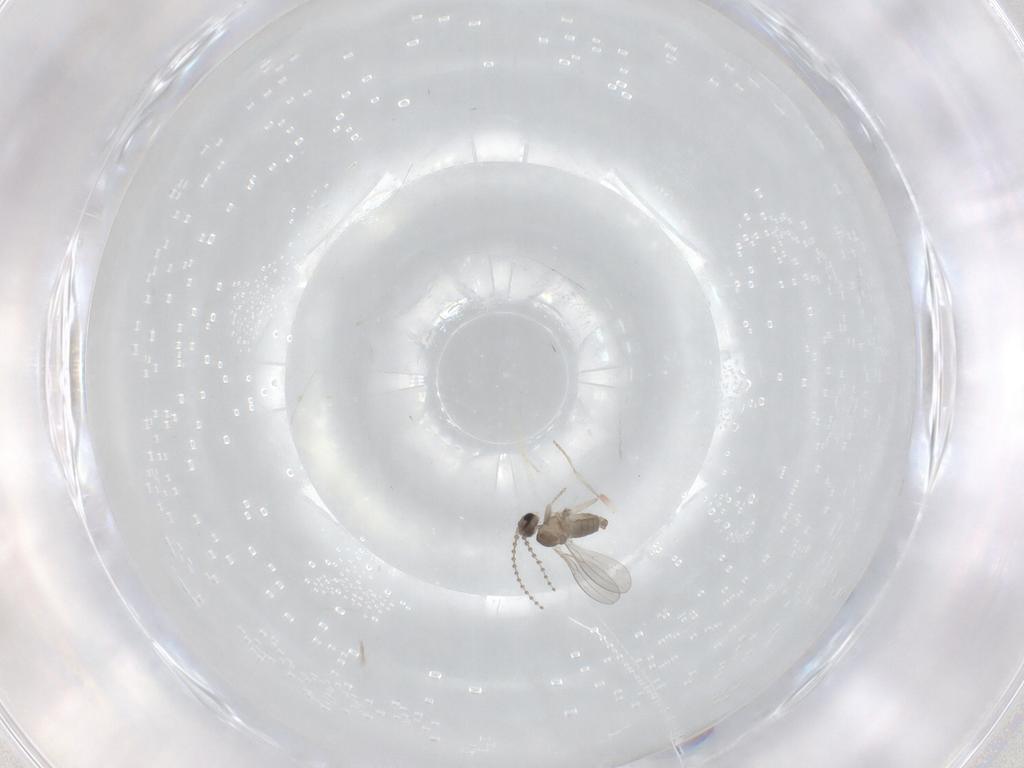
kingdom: Animalia
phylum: Arthropoda
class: Insecta
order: Diptera
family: Cecidomyiidae
